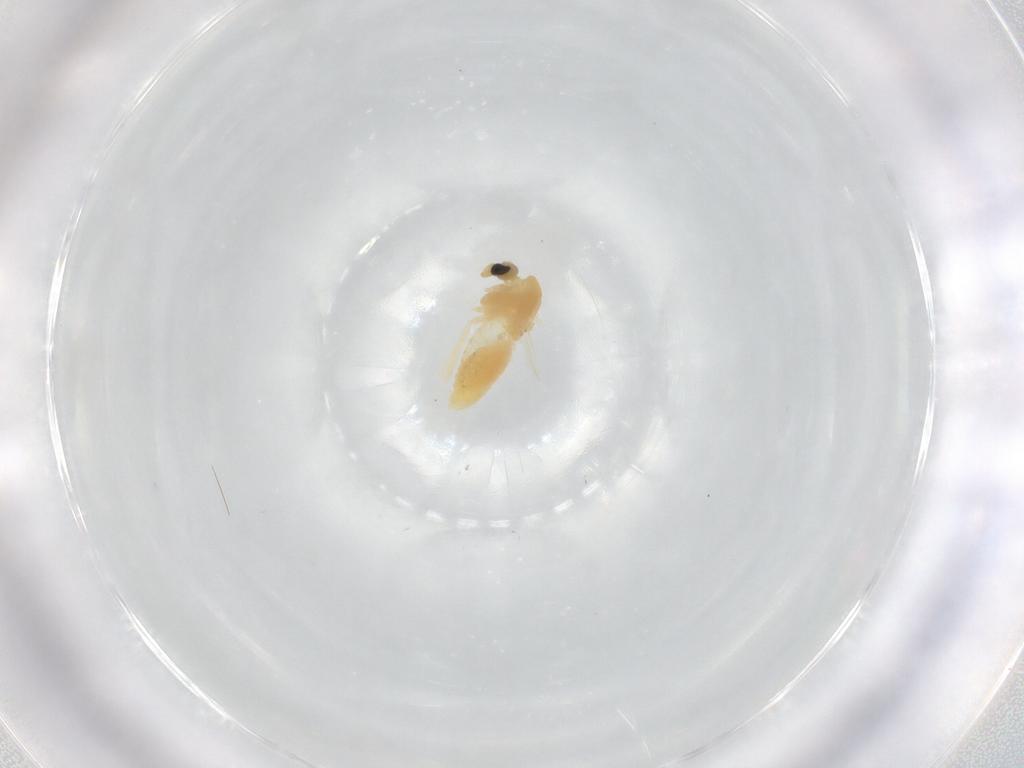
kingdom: Animalia
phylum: Arthropoda
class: Insecta
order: Diptera
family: Chironomidae
